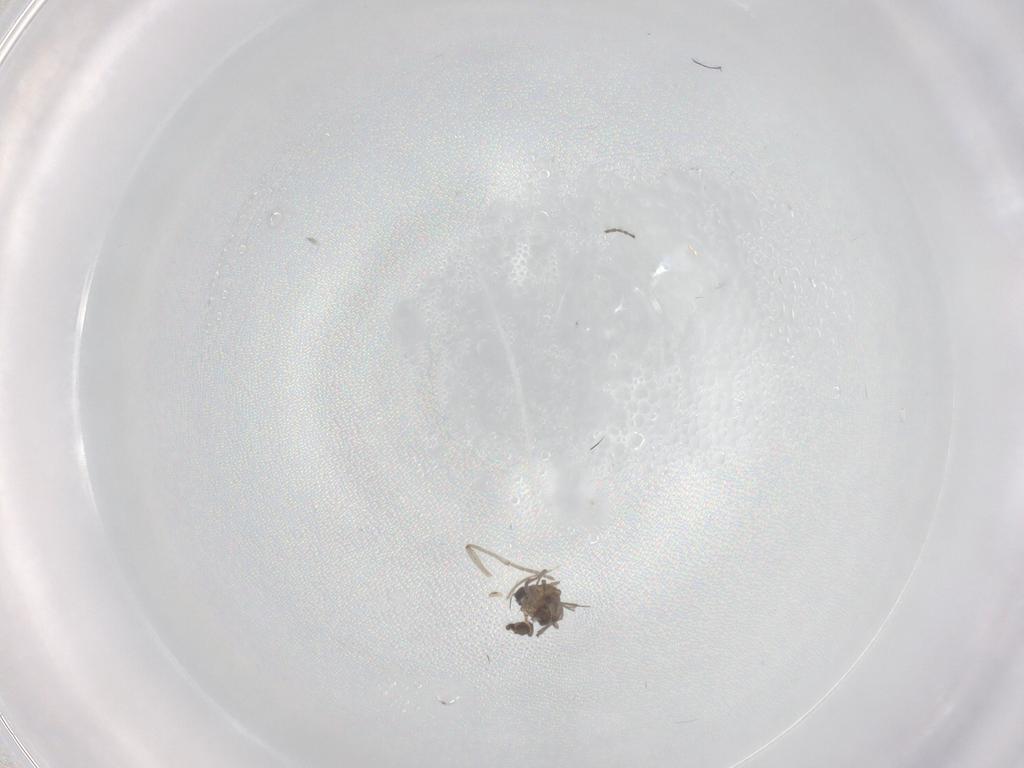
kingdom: Animalia
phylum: Arthropoda
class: Insecta
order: Diptera
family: Sciaridae
